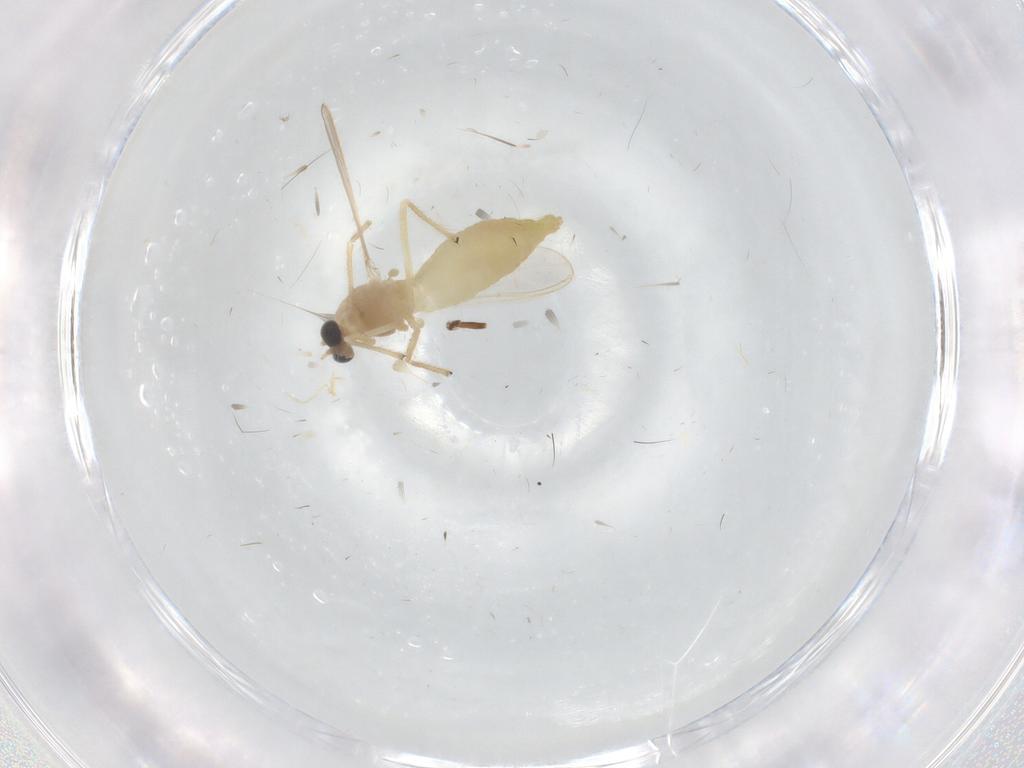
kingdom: Animalia
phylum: Arthropoda
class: Insecta
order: Diptera
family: Chironomidae
